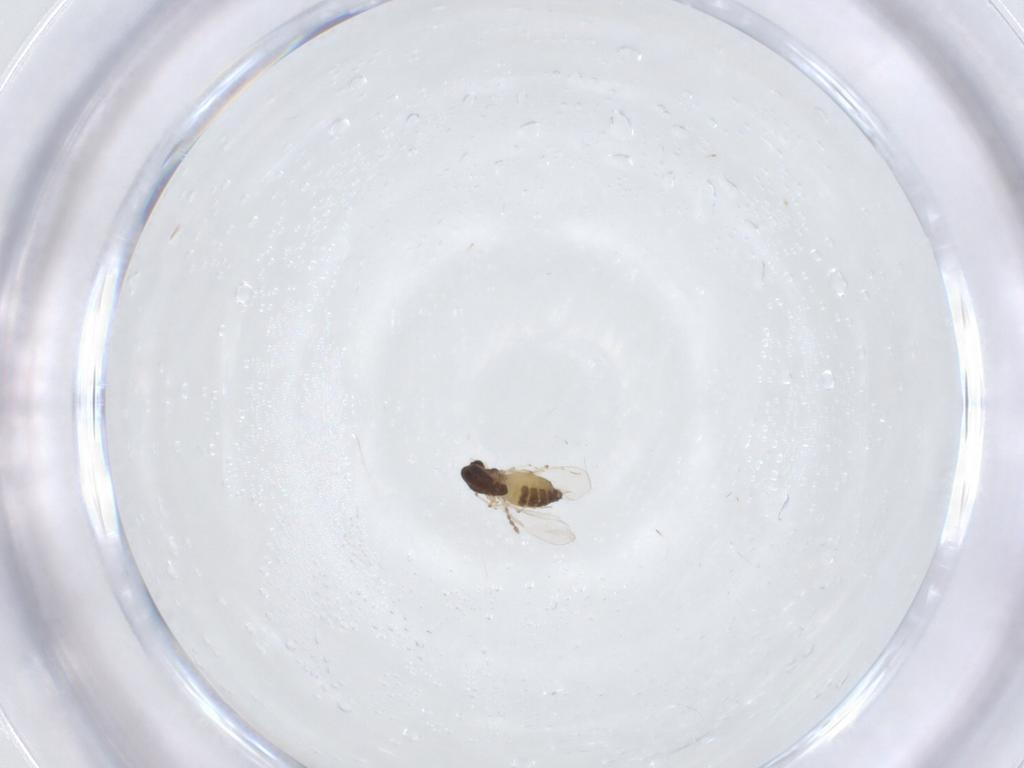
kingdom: Animalia
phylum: Arthropoda
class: Insecta
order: Diptera
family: Chironomidae
